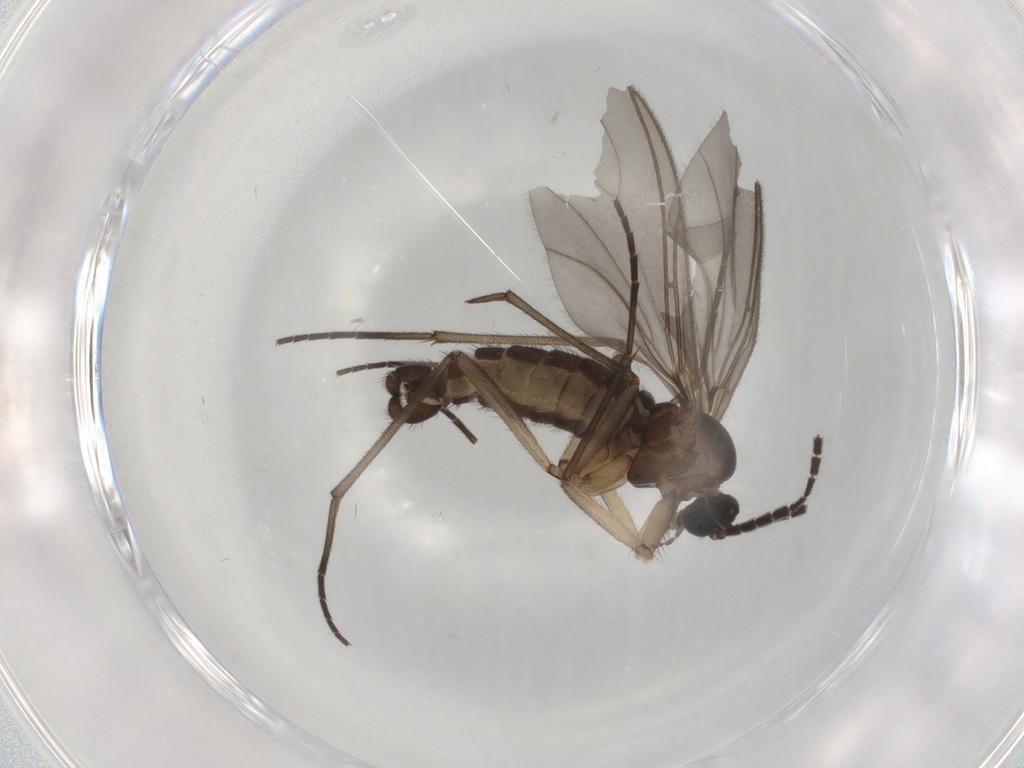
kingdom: Animalia
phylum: Arthropoda
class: Insecta
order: Diptera
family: Sciaridae
